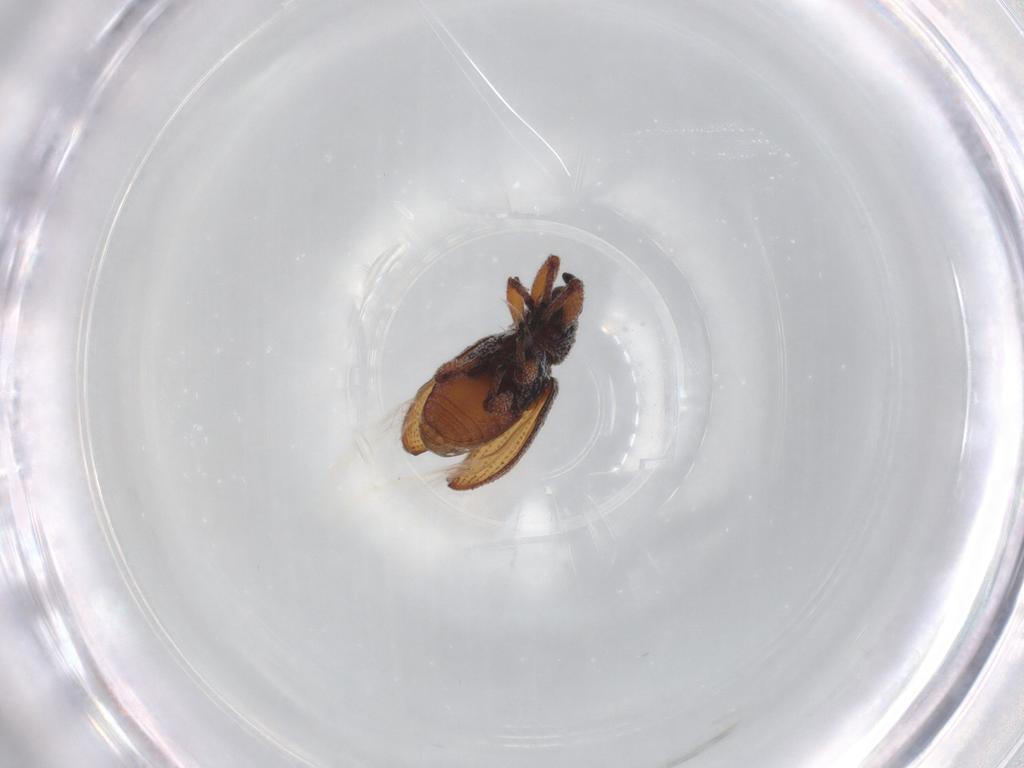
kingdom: Animalia
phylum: Arthropoda
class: Insecta
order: Coleoptera
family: Curculionidae
